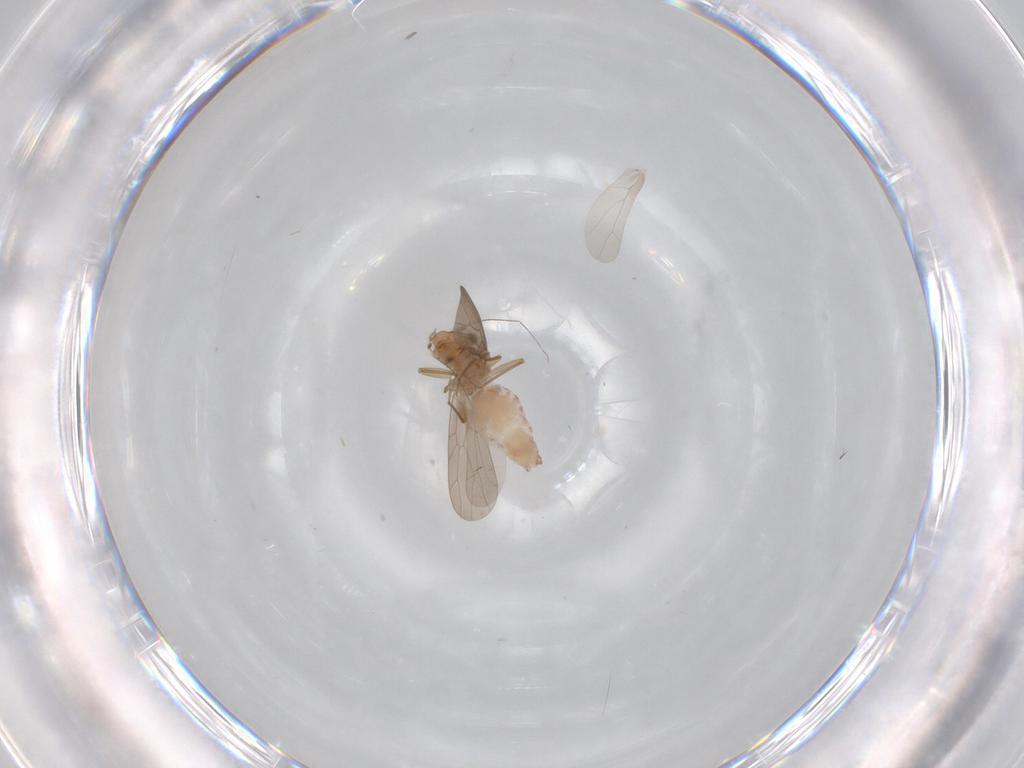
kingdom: Animalia
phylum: Arthropoda
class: Insecta
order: Psocodea
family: Lepidopsocidae
